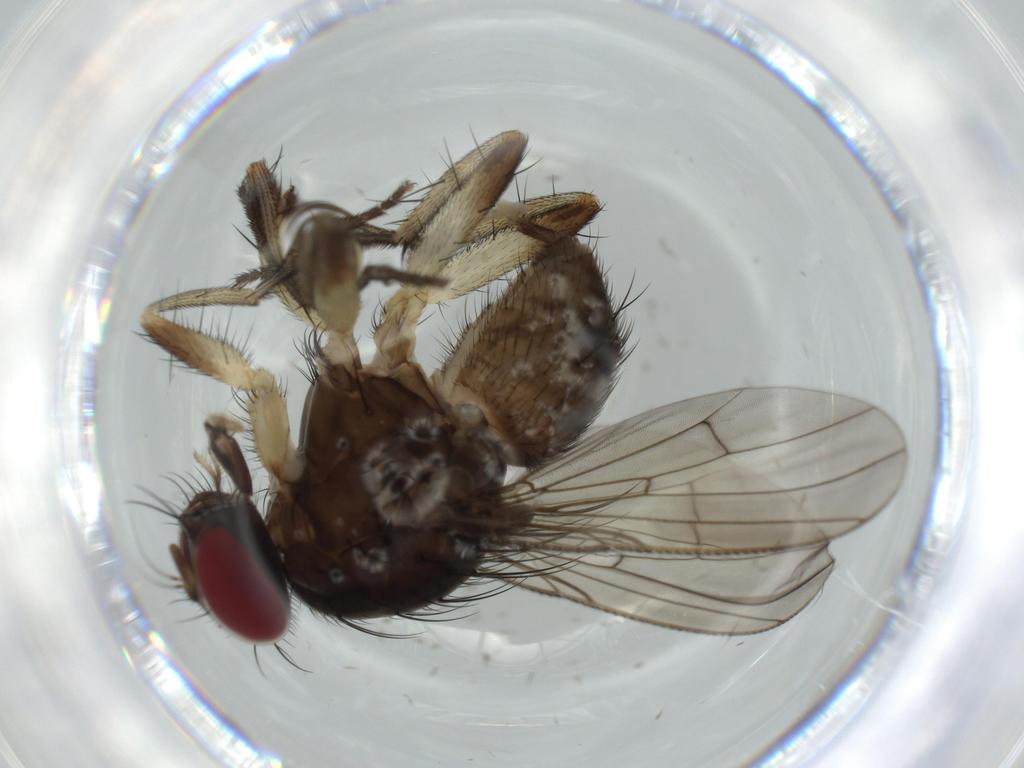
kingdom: Animalia
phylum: Arthropoda
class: Insecta
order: Diptera
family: Muscidae
